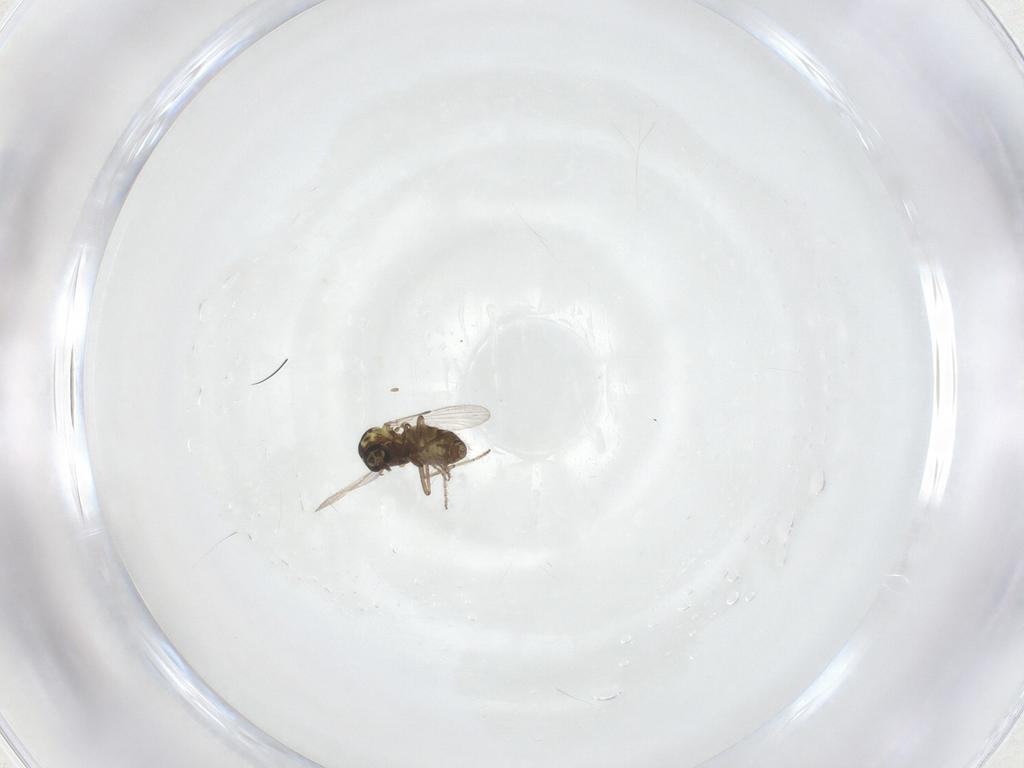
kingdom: Animalia
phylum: Arthropoda
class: Insecta
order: Diptera
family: Ceratopogonidae
